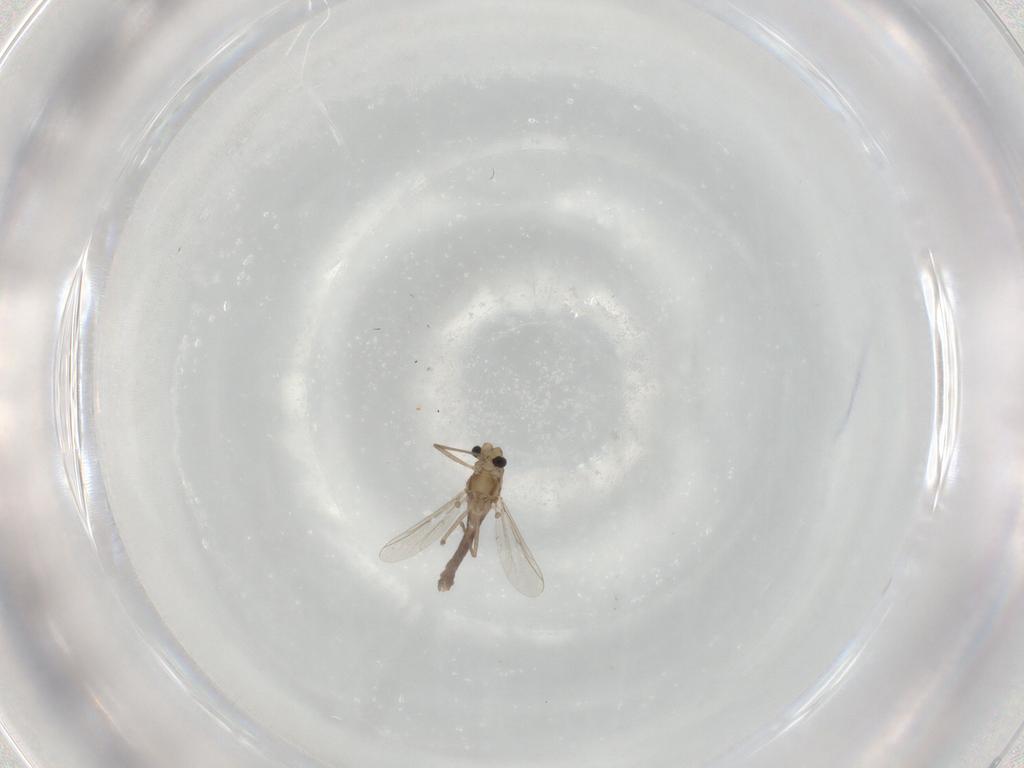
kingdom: Animalia
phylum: Arthropoda
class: Insecta
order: Diptera
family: Chironomidae
